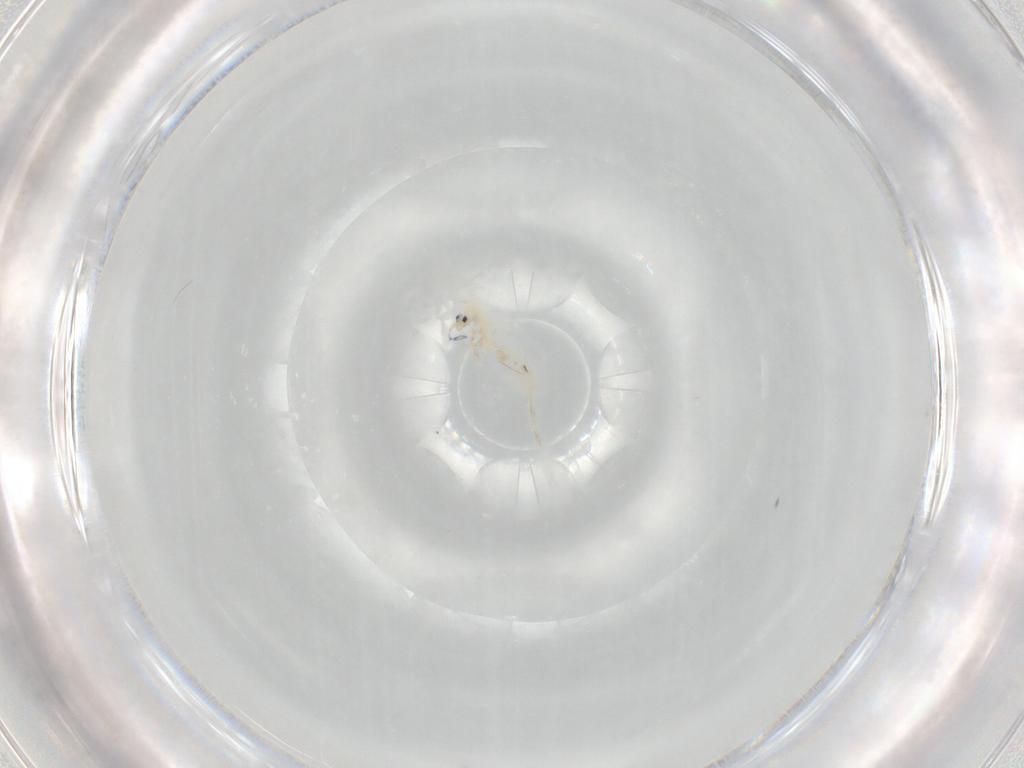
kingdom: Animalia
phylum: Arthropoda
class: Collembola
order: Entomobryomorpha
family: Entomobryidae
